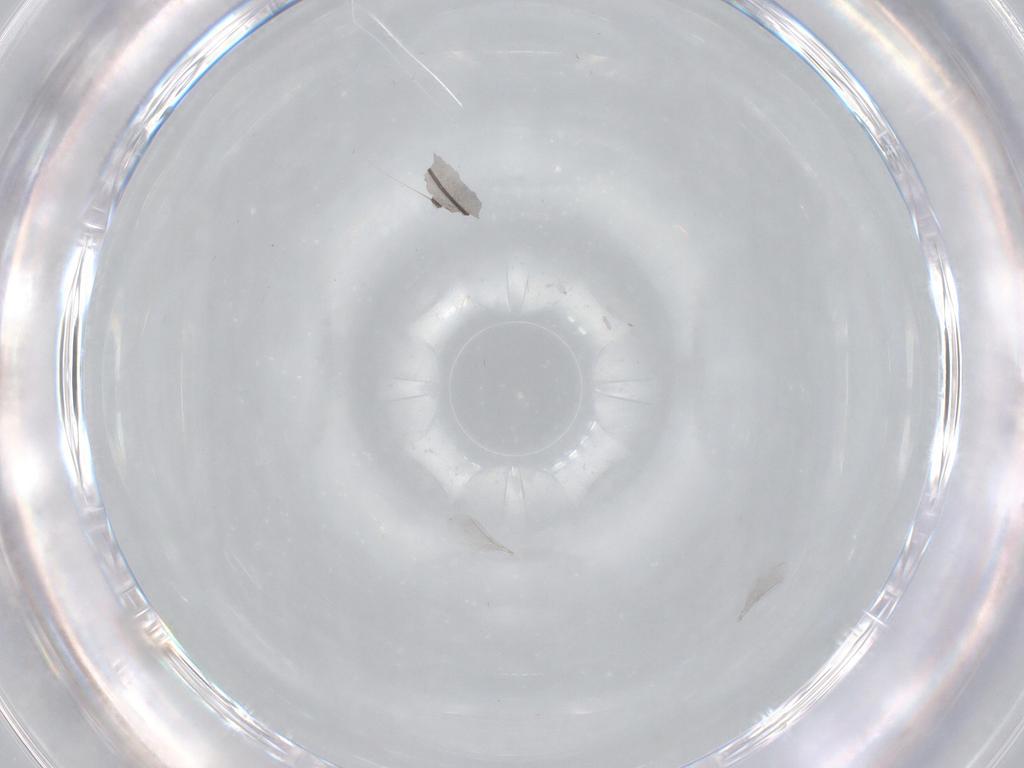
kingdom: Animalia
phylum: Arthropoda
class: Insecta
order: Diptera
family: Cecidomyiidae
